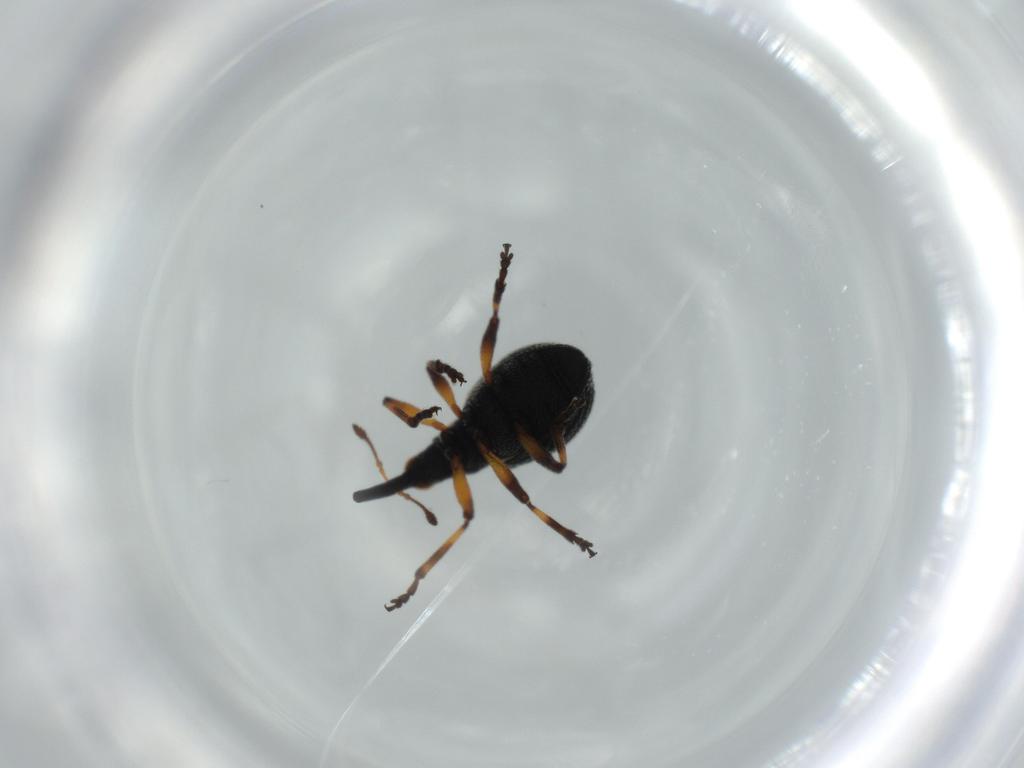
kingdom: Animalia
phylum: Arthropoda
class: Insecta
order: Coleoptera
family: Brentidae
